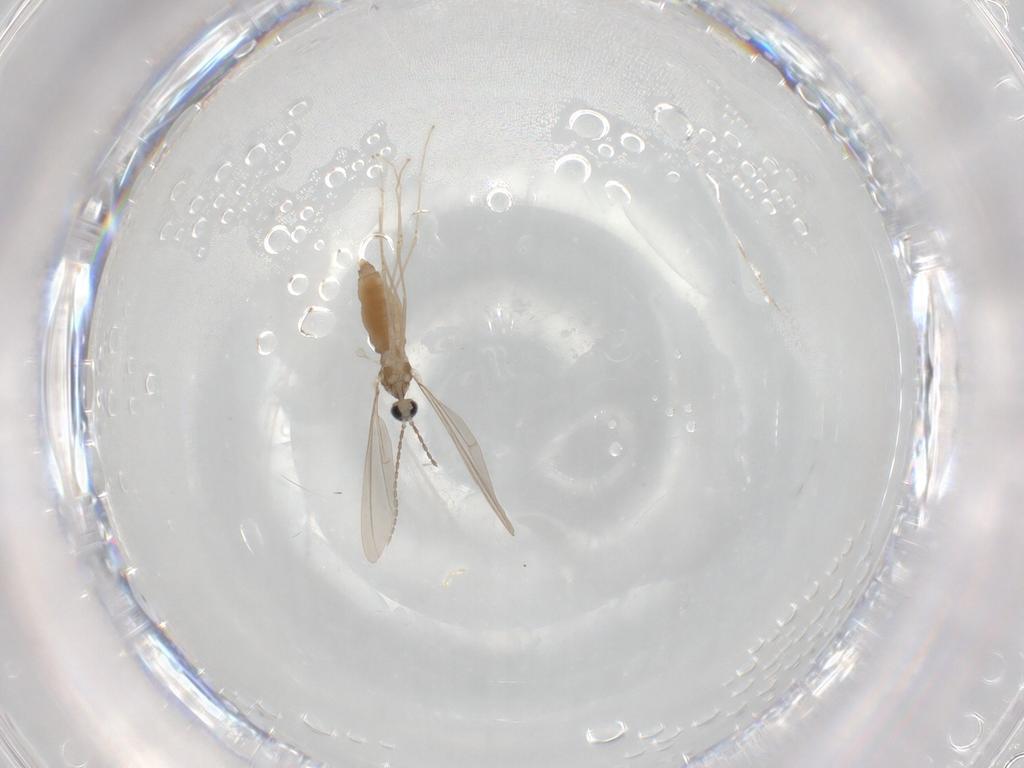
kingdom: Animalia
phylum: Arthropoda
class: Insecta
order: Diptera
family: Cecidomyiidae
